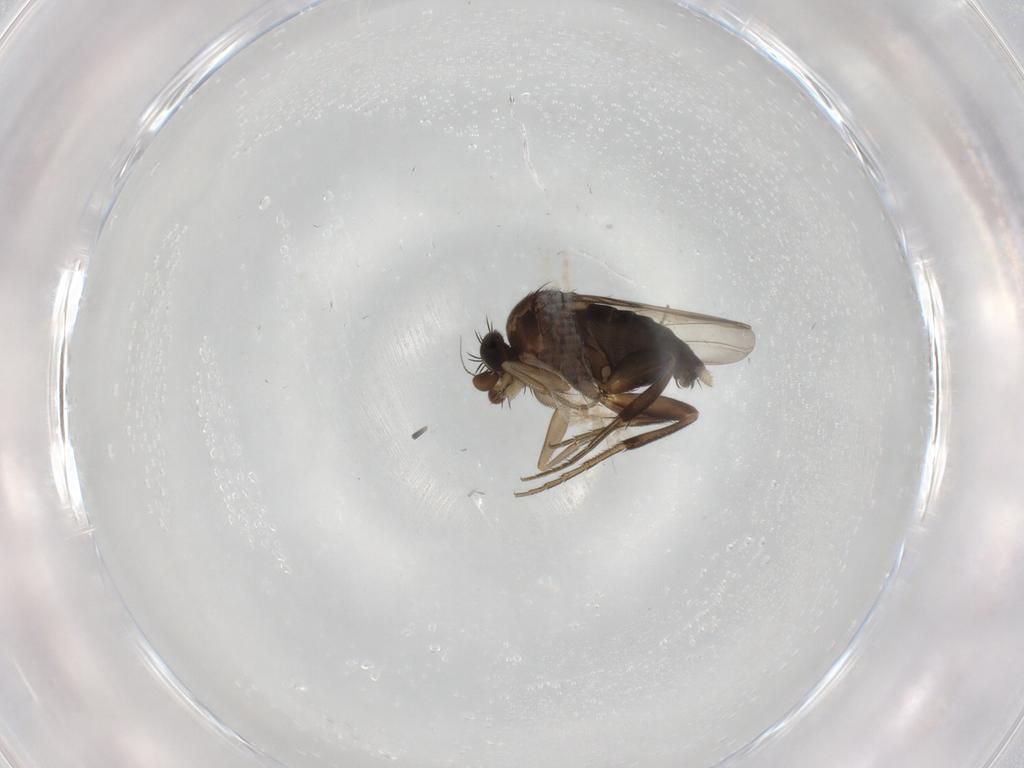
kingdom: Animalia
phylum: Arthropoda
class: Insecta
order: Diptera
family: Phoridae
